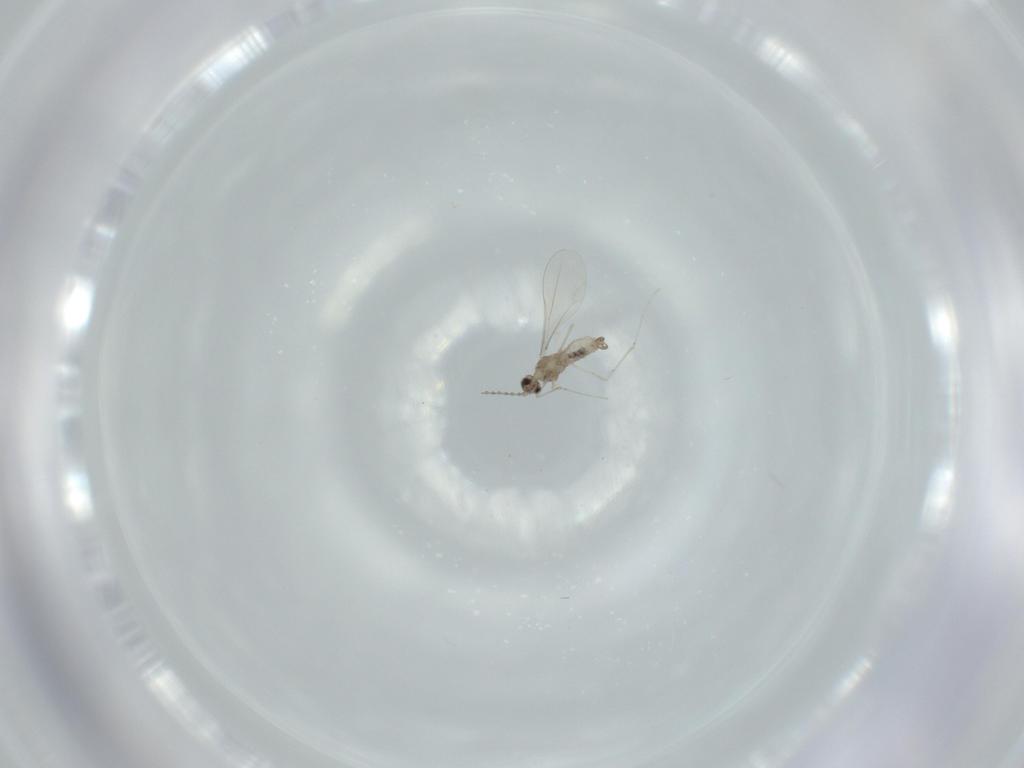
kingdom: Animalia
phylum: Arthropoda
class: Insecta
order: Diptera
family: Cecidomyiidae
